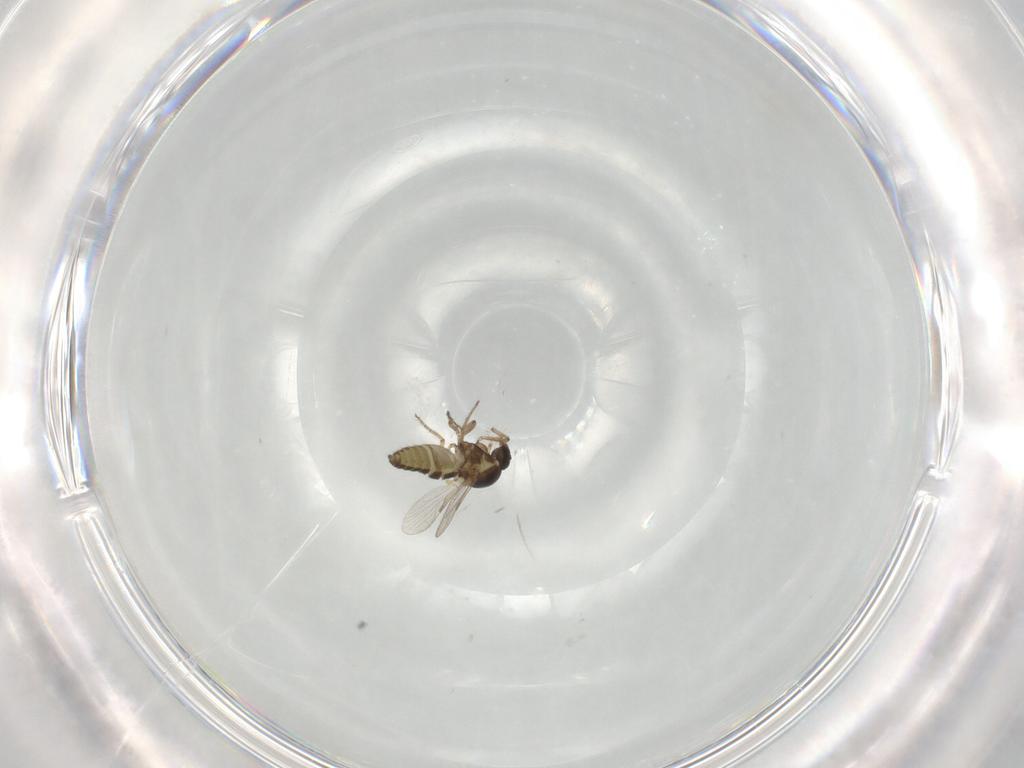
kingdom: Animalia
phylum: Arthropoda
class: Insecta
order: Diptera
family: Ceratopogonidae
